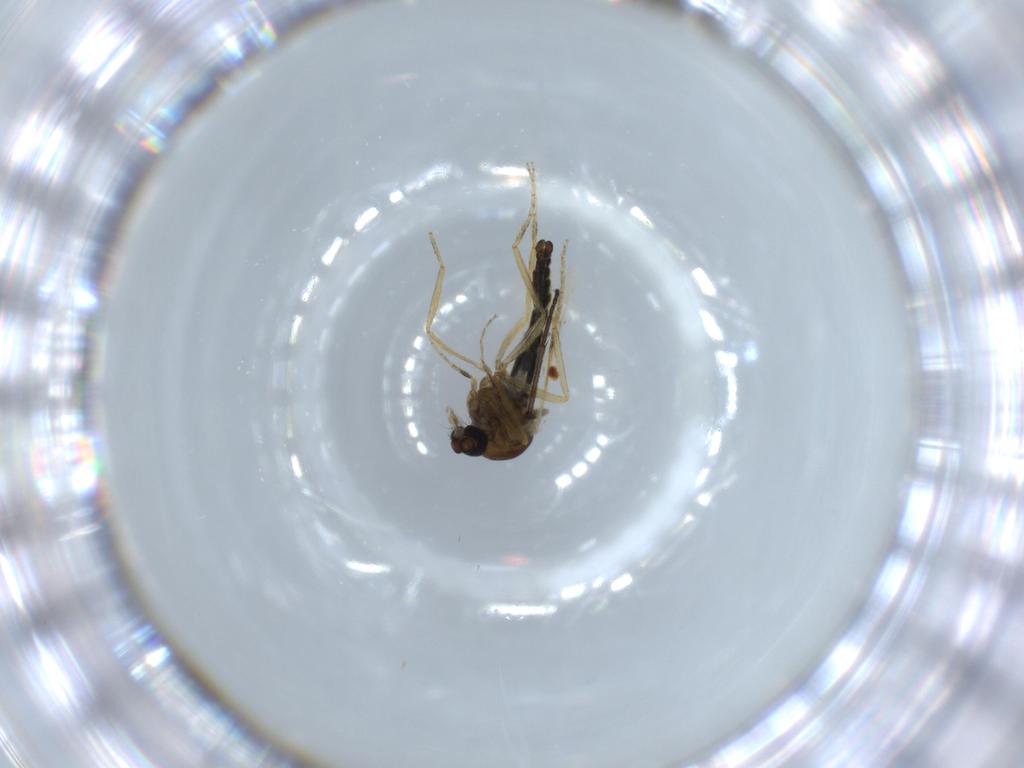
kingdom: Animalia
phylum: Arthropoda
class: Insecta
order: Diptera
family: Ceratopogonidae
